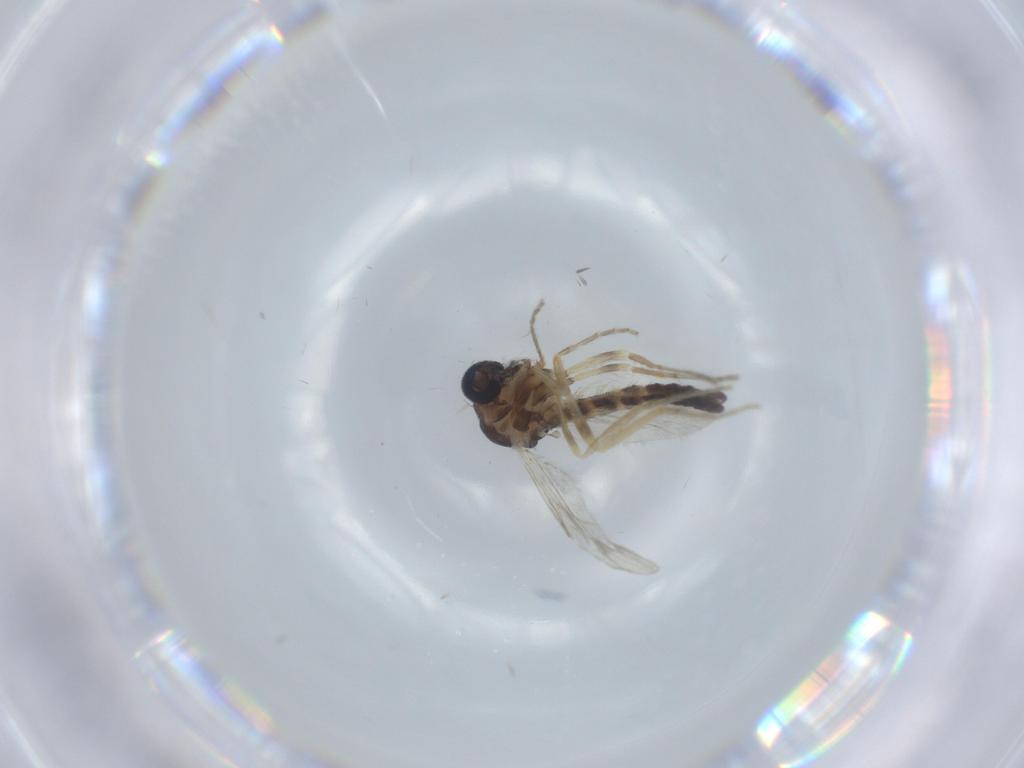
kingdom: Animalia
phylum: Arthropoda
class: Insecta
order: Diptera
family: Ceratopogonidae
